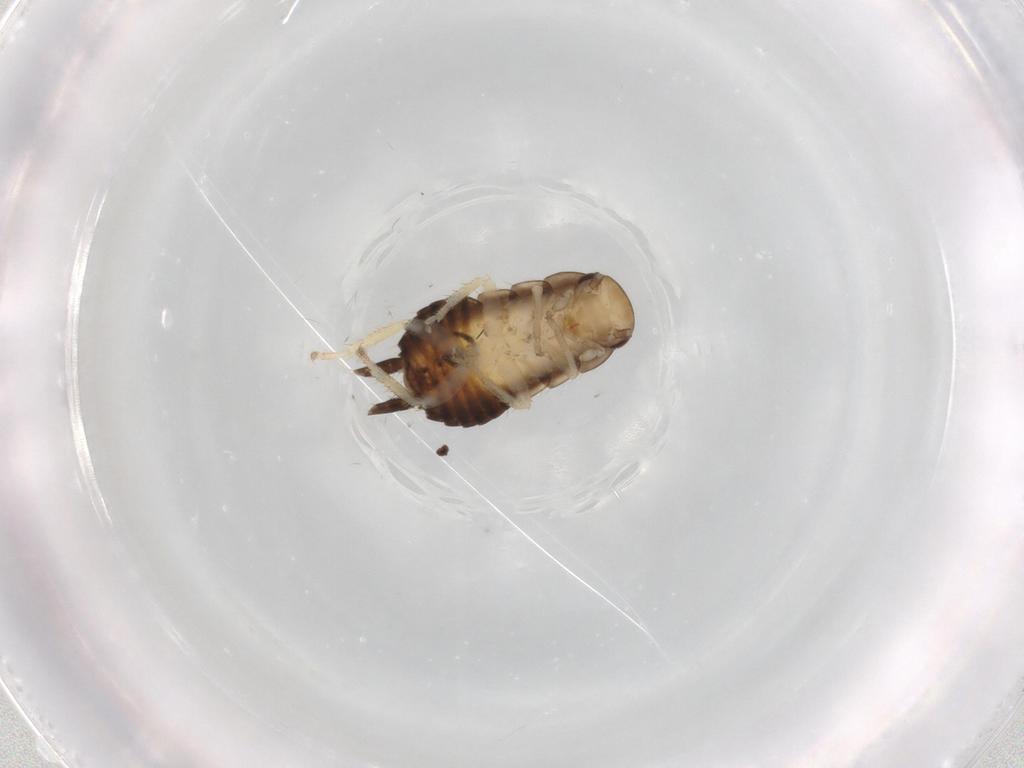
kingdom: Animalia
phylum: Arthropoda
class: Insecta
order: Blattodea
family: Ectobiidae
